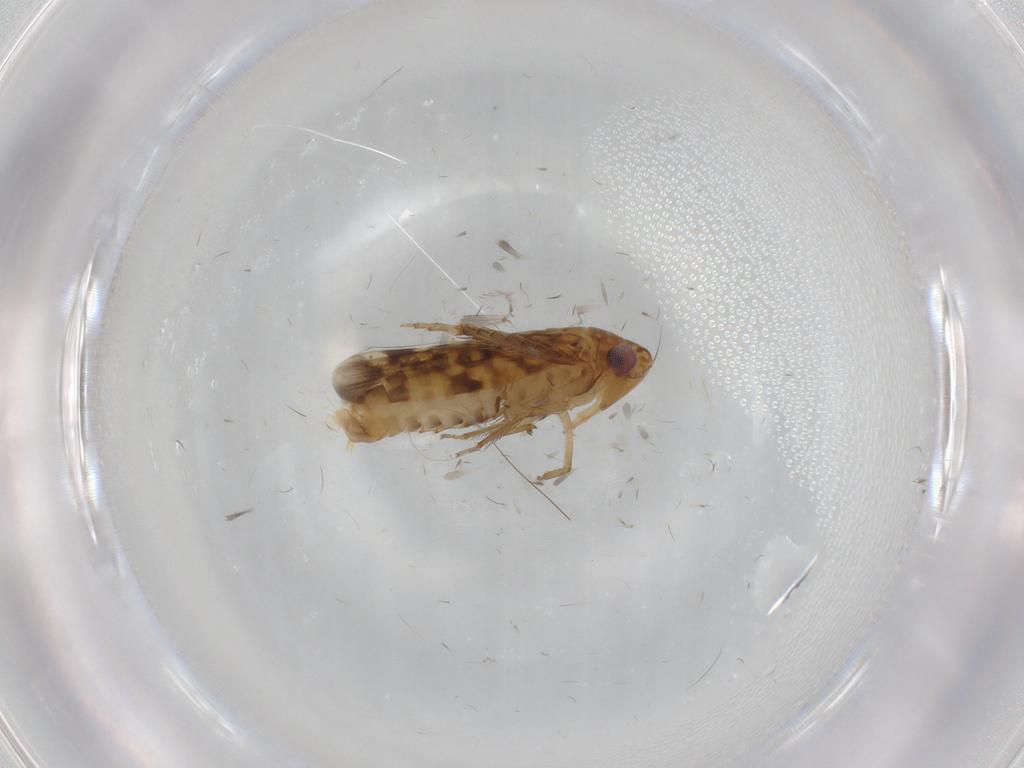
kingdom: Animalia
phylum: Arthropoda
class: Insecta
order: Hemiptera
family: Cicadellidae
